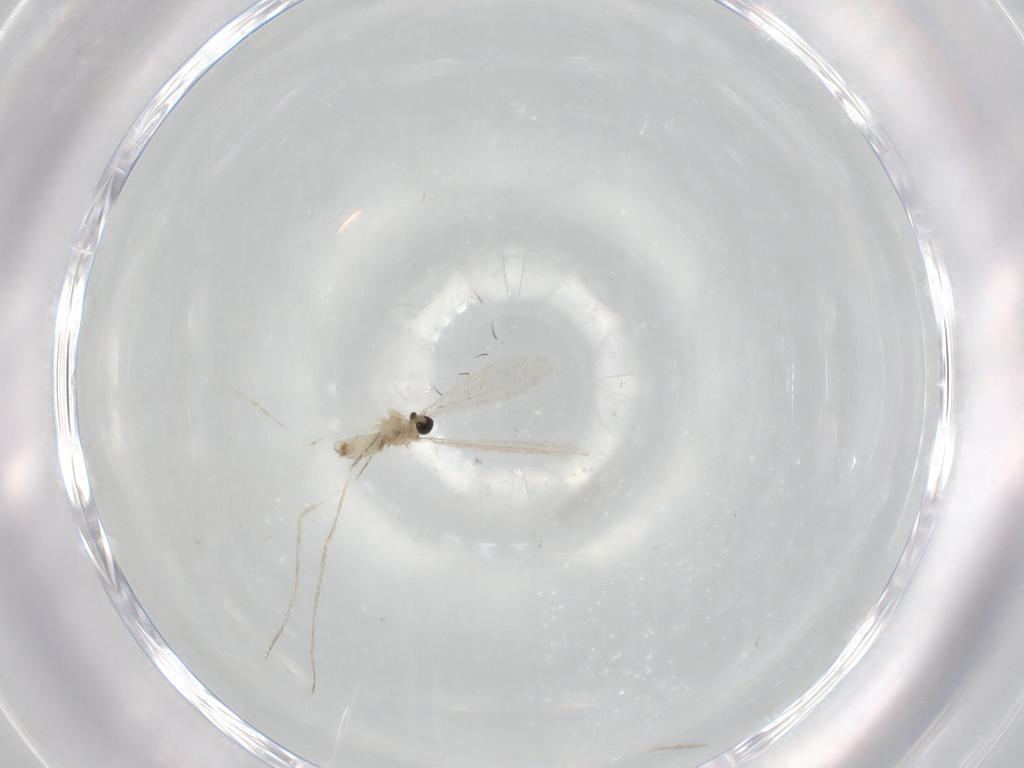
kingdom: Animalia
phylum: Arthropoda
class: Insecta
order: Diptera
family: Cecidomyiidae
